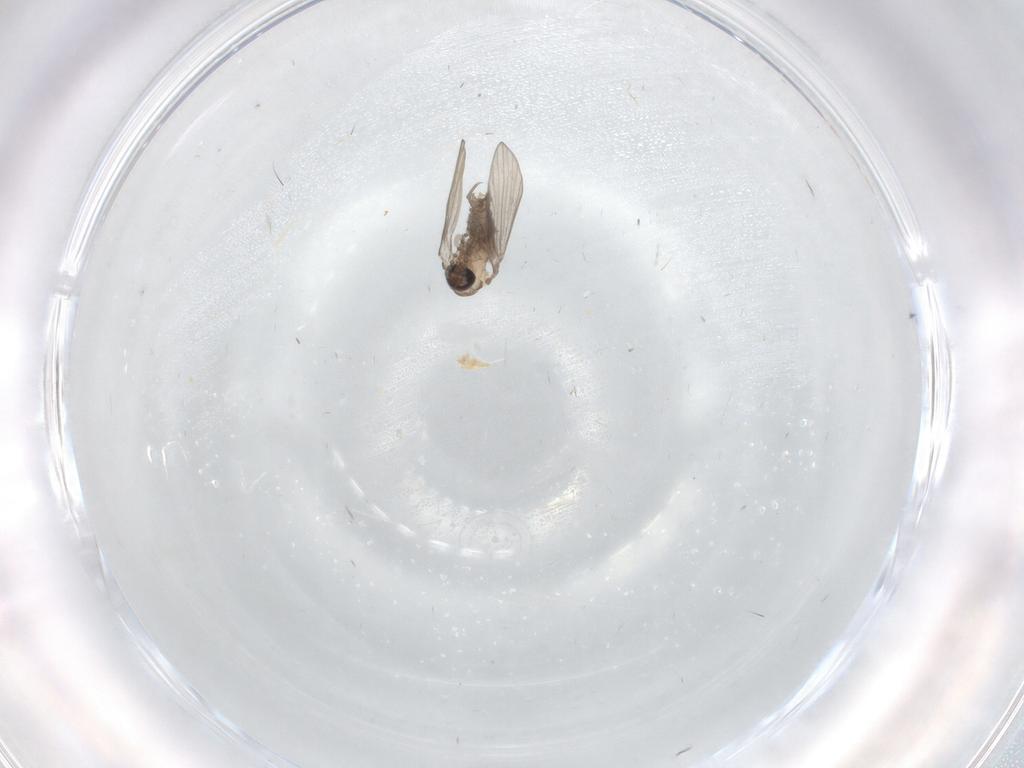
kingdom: Animalia
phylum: Arthropoda
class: Insecta
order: Diptera
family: Psychodidae
